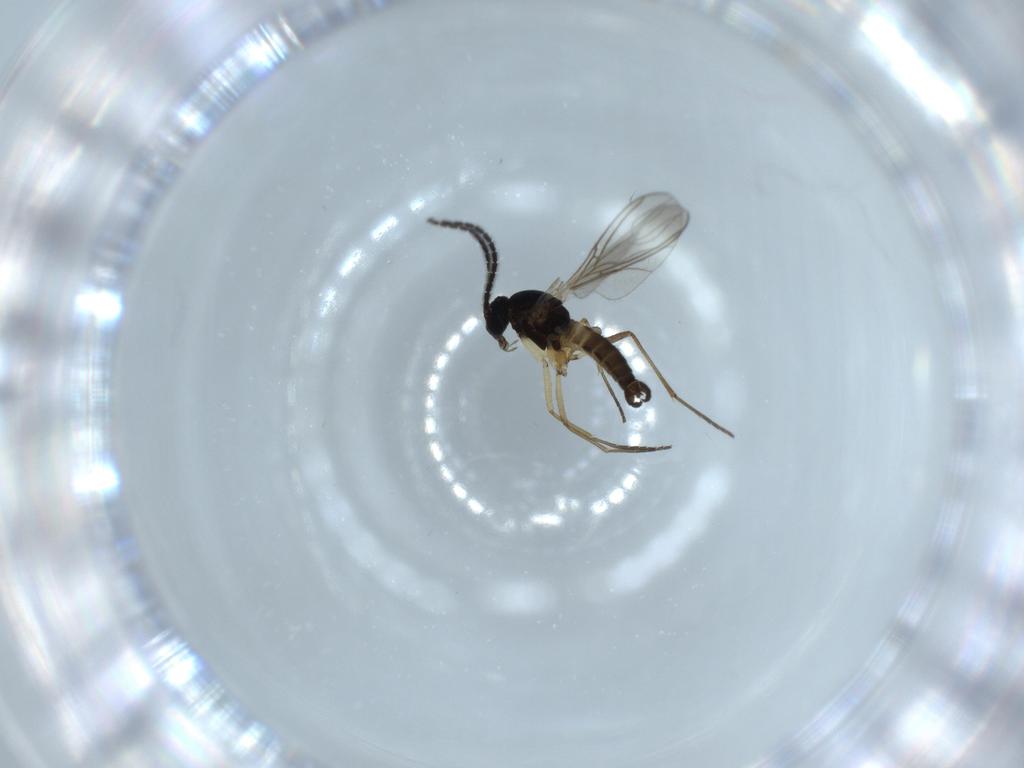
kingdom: Animalia
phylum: Arthropoda
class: Insecta
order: Diptera
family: Sciaridae
